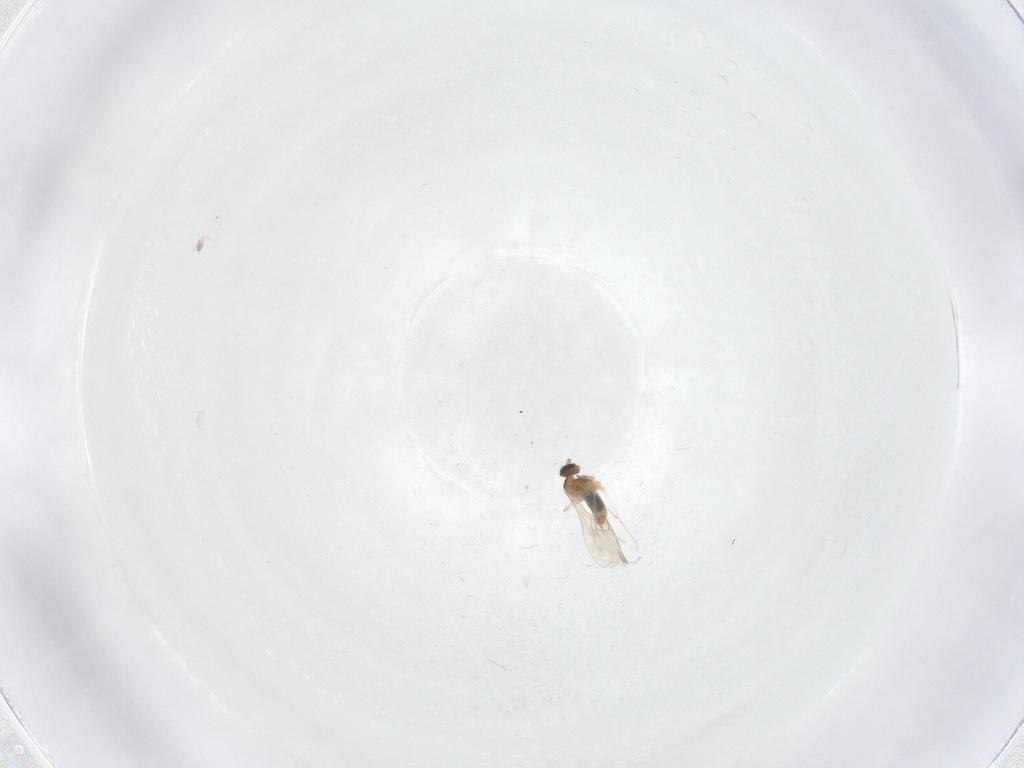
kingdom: Animalia
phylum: Arthropoda
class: Insecta
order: Diptera
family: Cecidomyiidae
